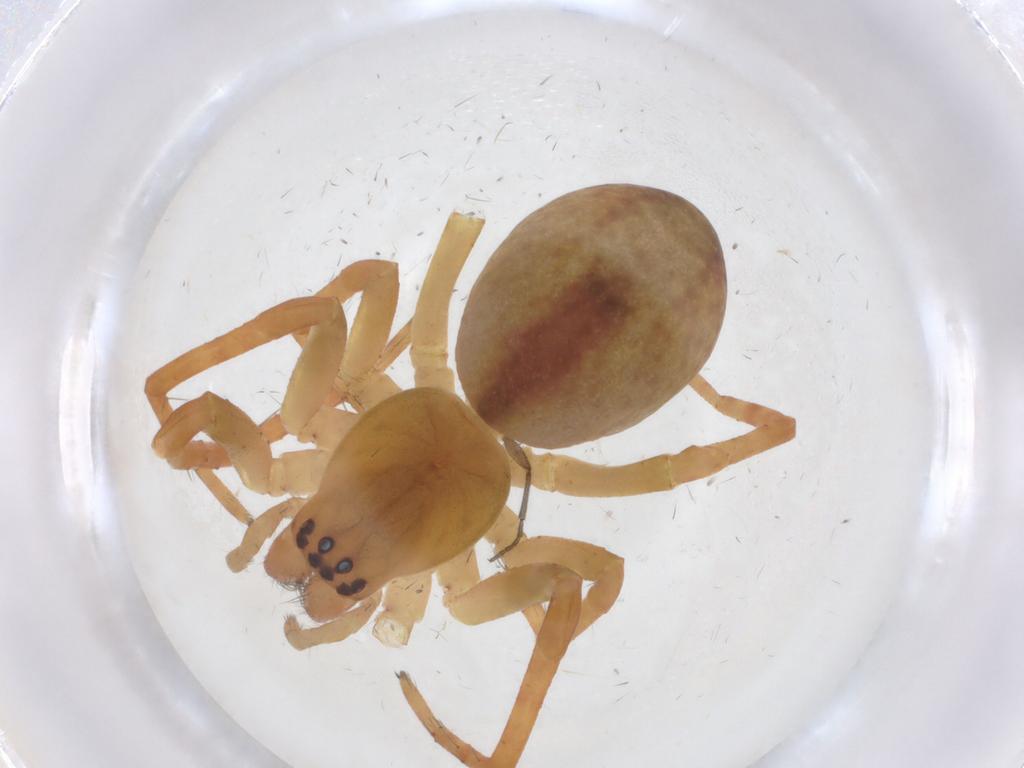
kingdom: Animalia
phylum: Arthropoda
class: Arachnida
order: Araneae
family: Mimetidae
